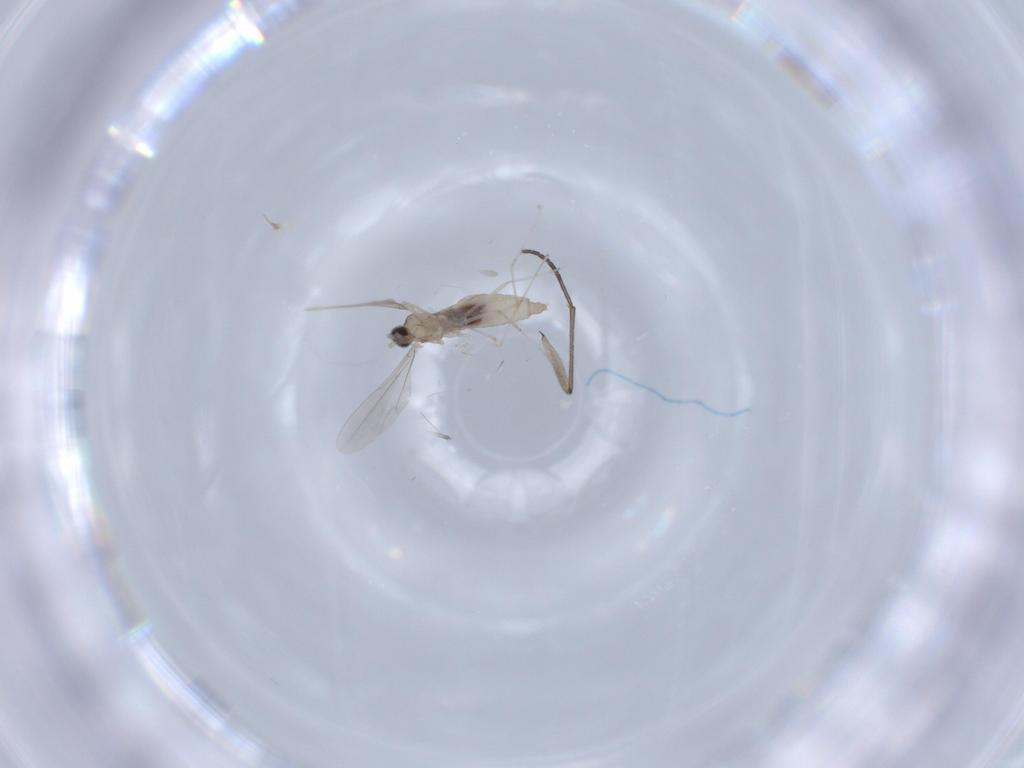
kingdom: Animalia
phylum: Arthropoda
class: Insecta
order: Diptera
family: Cecidomyiidae
